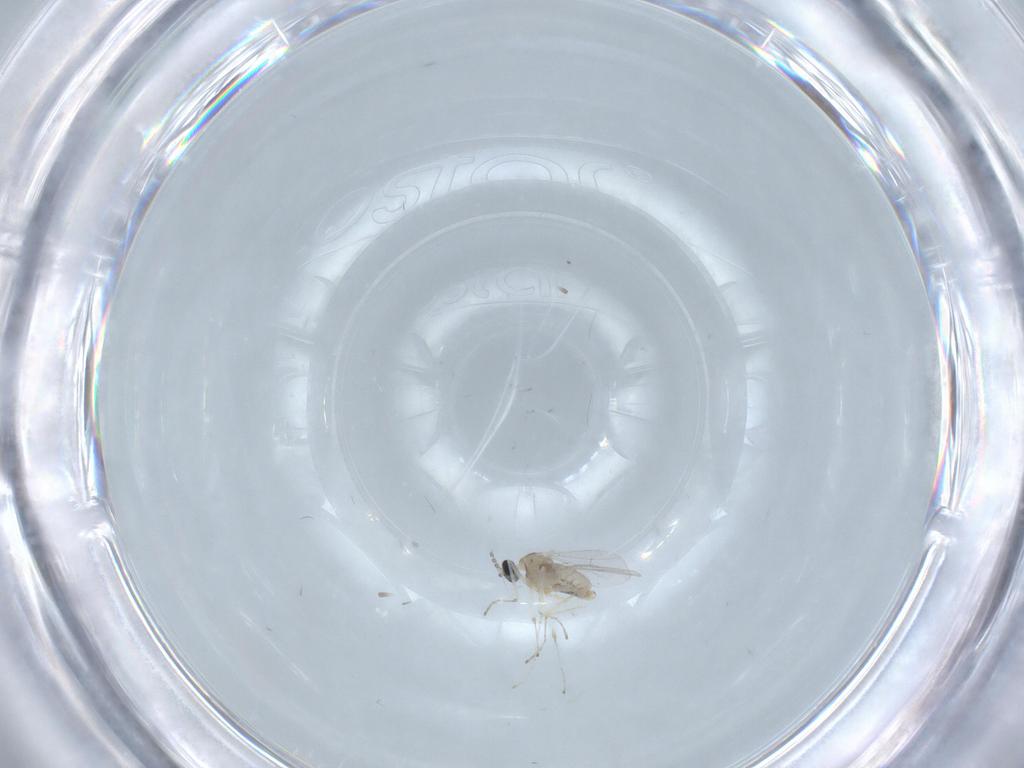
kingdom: Animalia
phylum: Arthropoda
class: Insecta
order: Diptera
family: Cecidomyiidae
